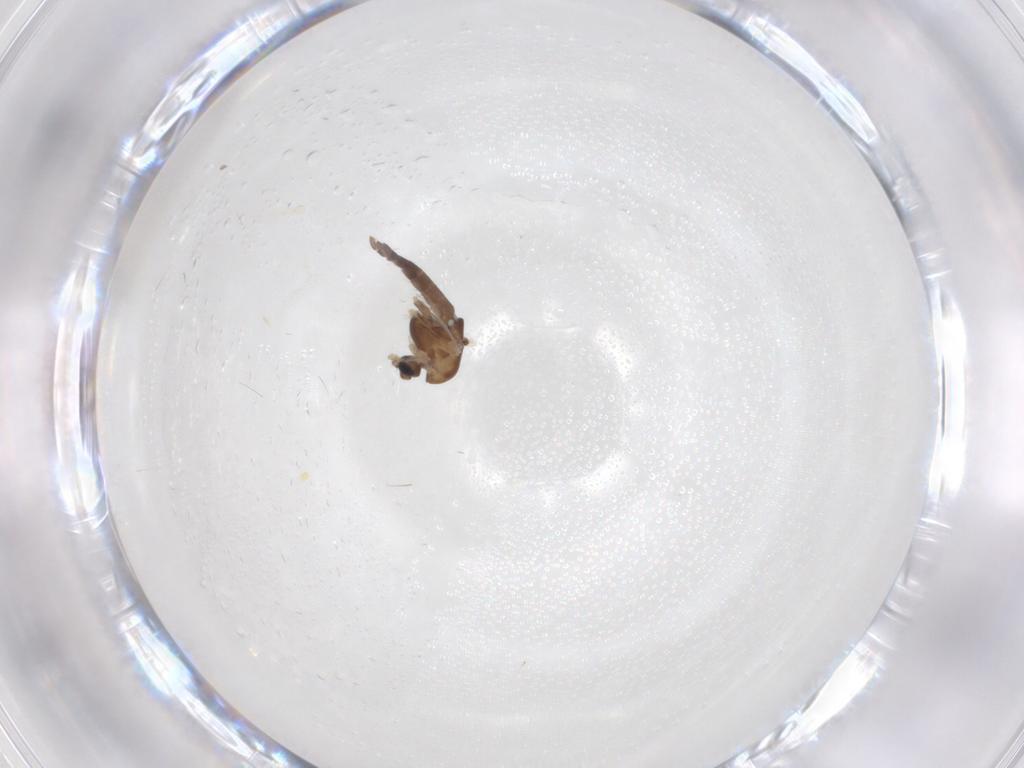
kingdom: Animalia
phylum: Arthropoda
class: Insecta
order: Diptera
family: Chironomidae
